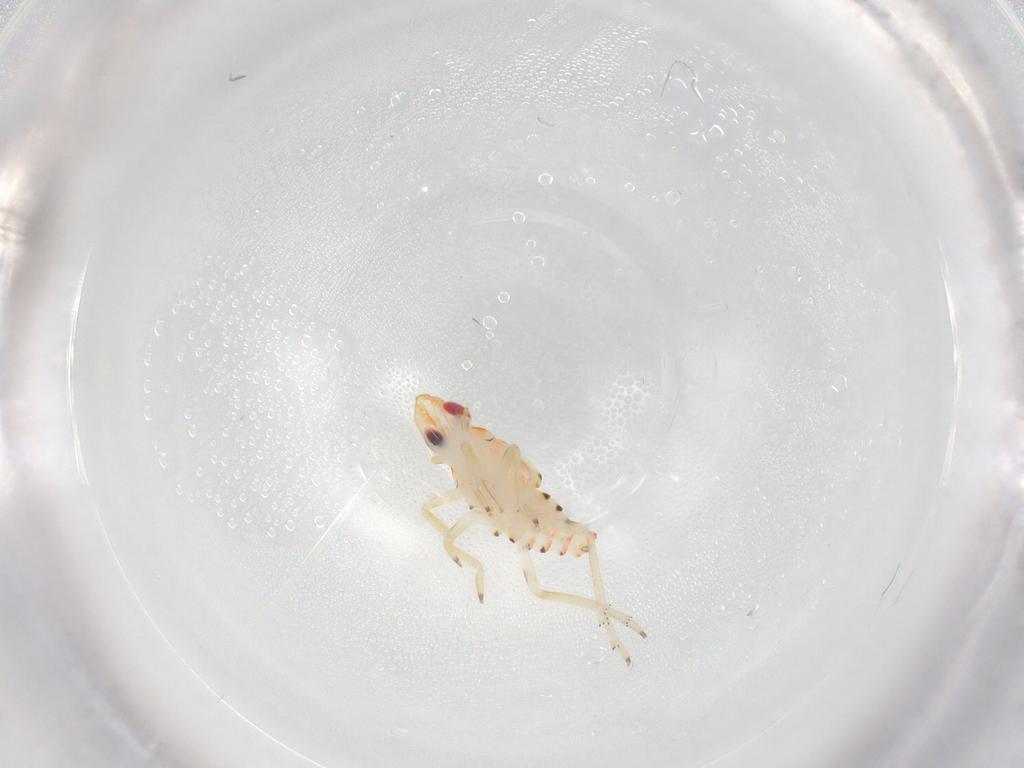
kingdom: Animalia
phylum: Arthropoda
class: Insecta
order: Hemiptera
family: Tropiduchidae
